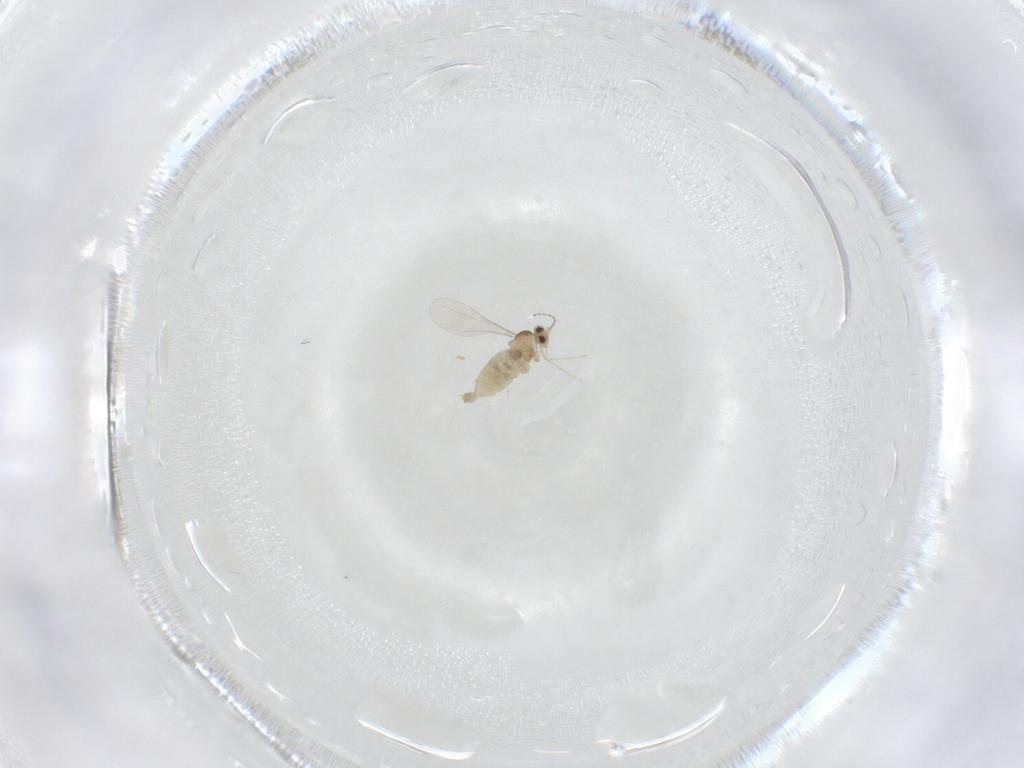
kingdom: Animalia
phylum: Arthropoda
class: Insecta
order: Diptera
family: Cecidomyiidae
